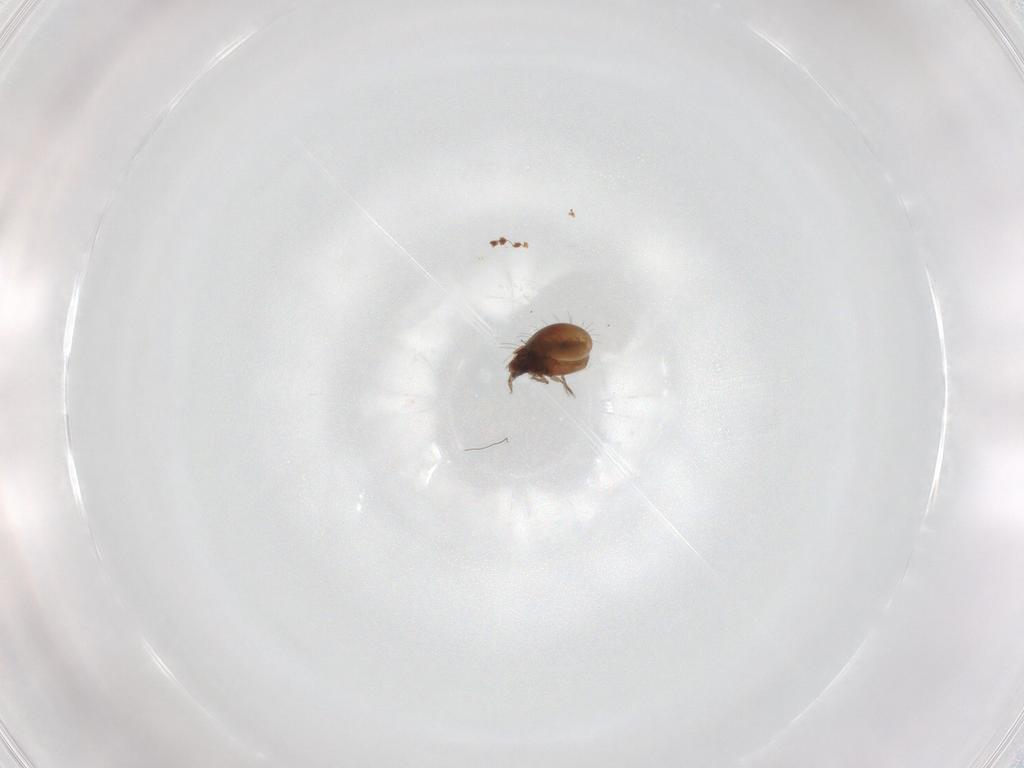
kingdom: Animalia
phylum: Arthropoda
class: Arachnida
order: Sarcoptiformes
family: Humerobatidae
